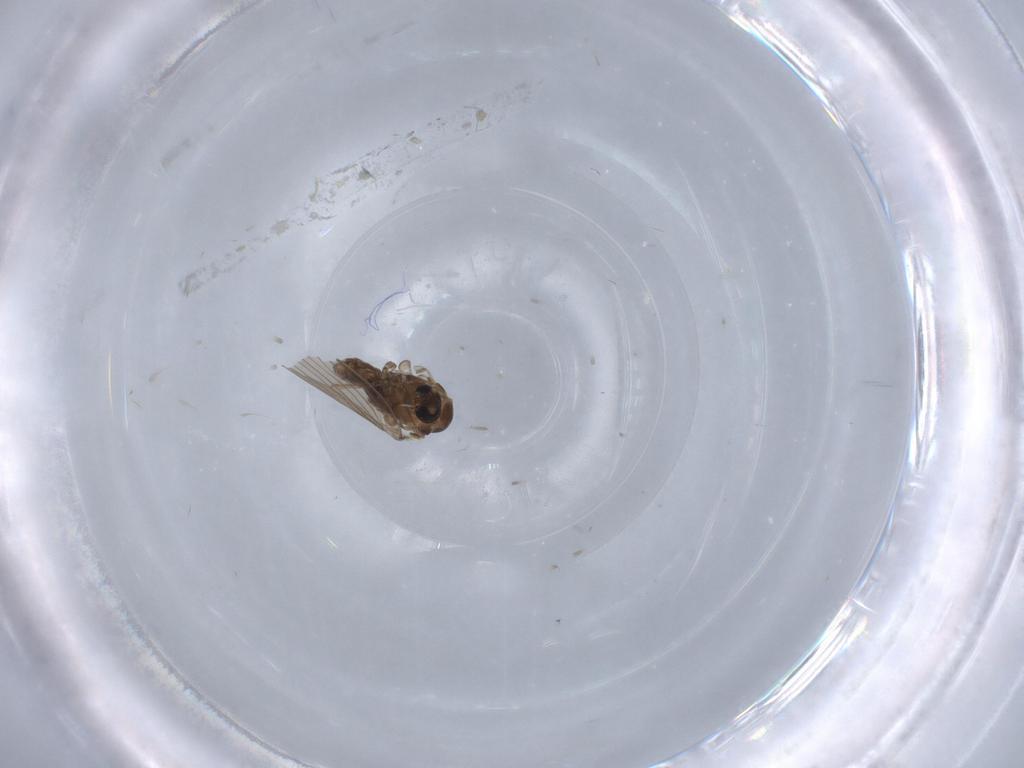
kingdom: Animalia
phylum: Arthropoda
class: Insecta
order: Diptera
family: Psychodidae
